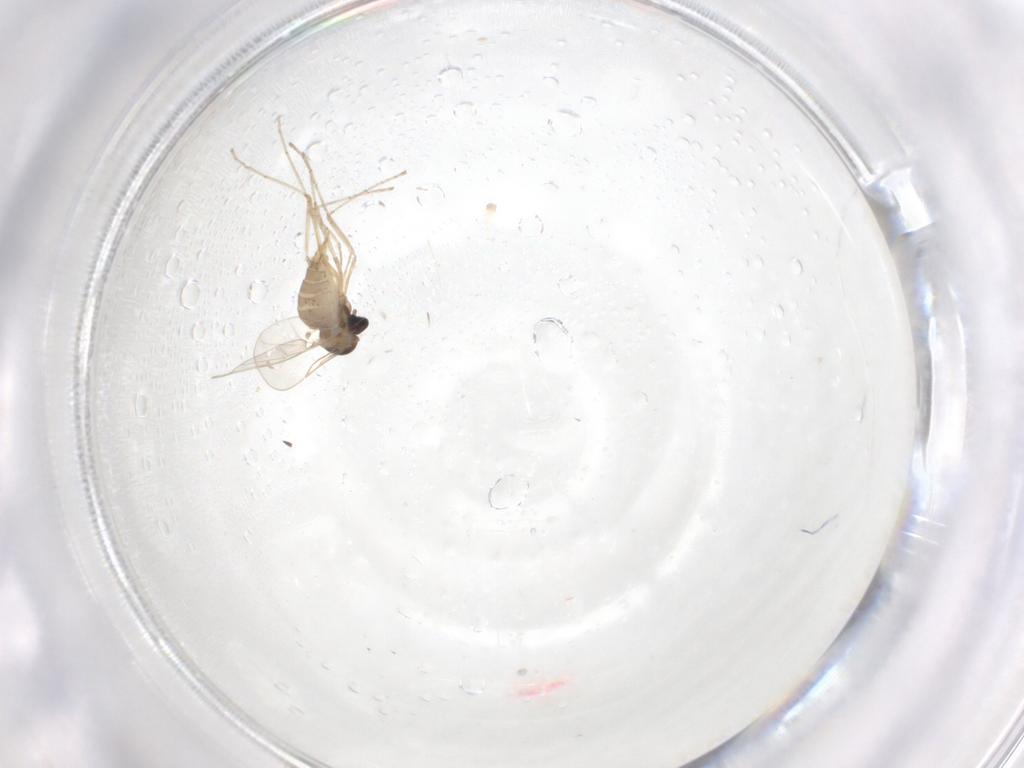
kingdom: Animalia
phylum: Arthropoda
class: Insecta
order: Diptera
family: Cecidomyiidae
